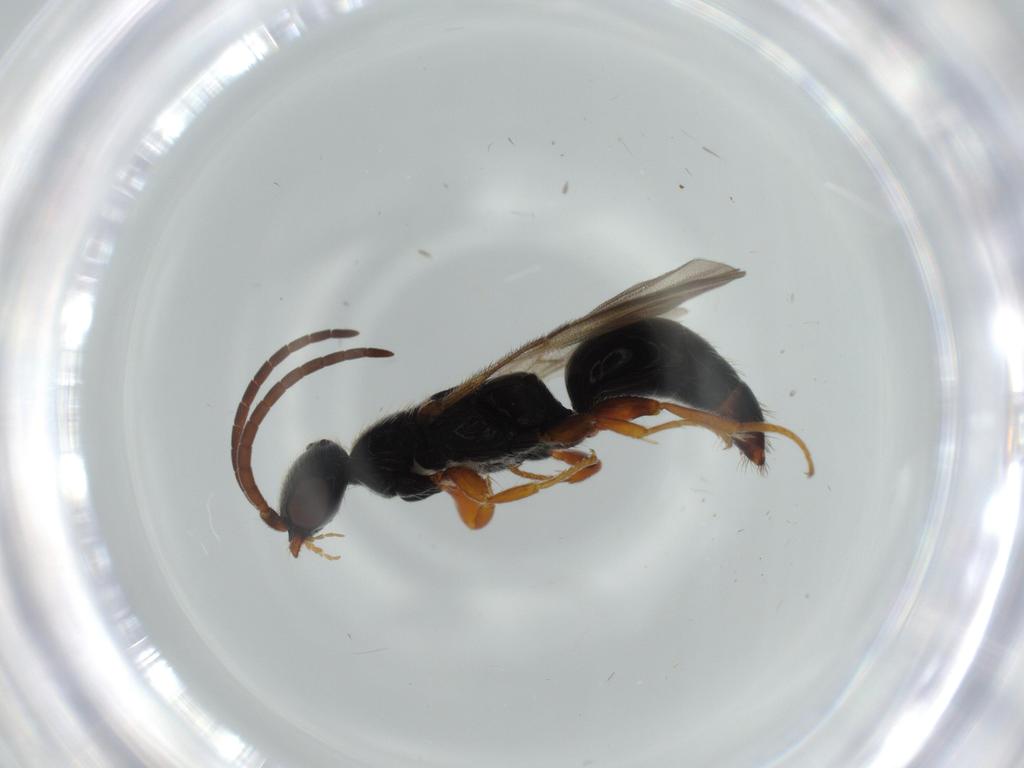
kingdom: Animalia
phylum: Arthropoda
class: Insecta
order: Hymenoptera
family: Bethylidae
